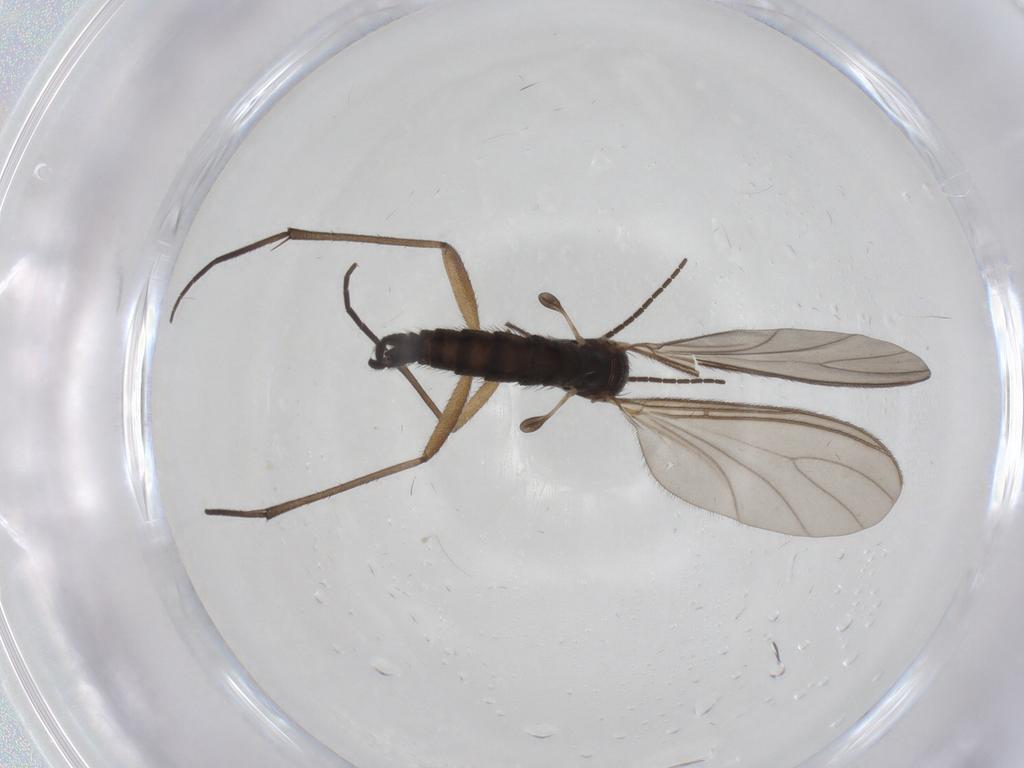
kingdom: Animalia
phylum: Arthropoda
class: Insecta
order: Diptera
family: Sciaridae
